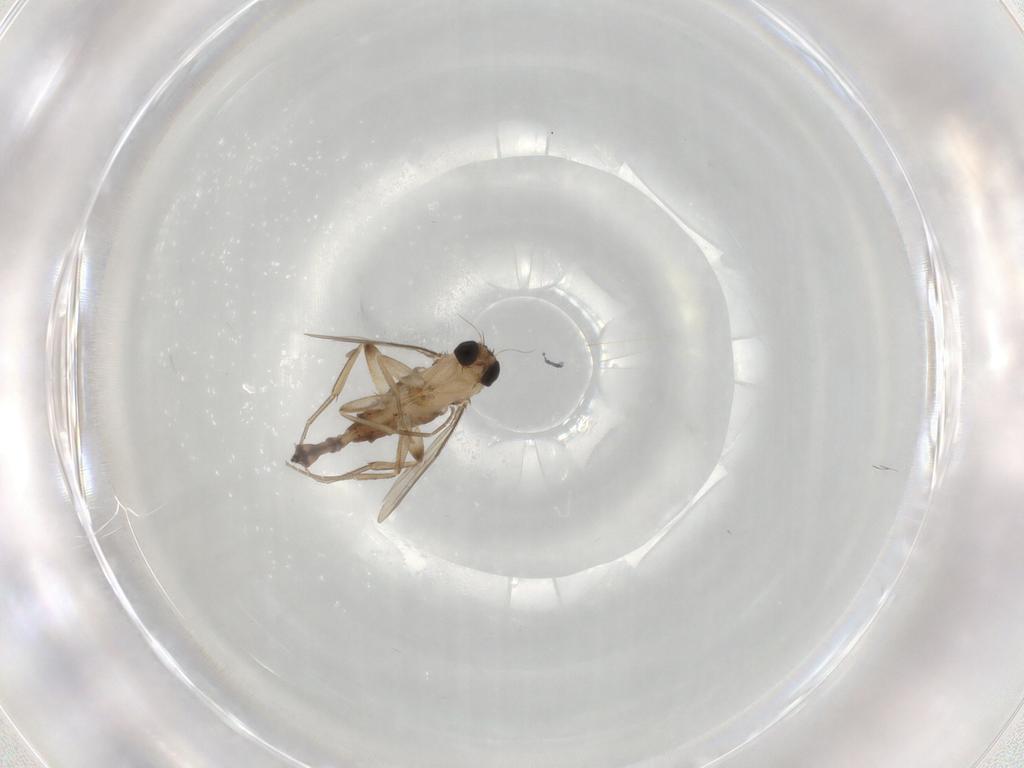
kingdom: Animalia
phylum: Arthropoda
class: Insecta
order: Diptera
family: Phoridae
